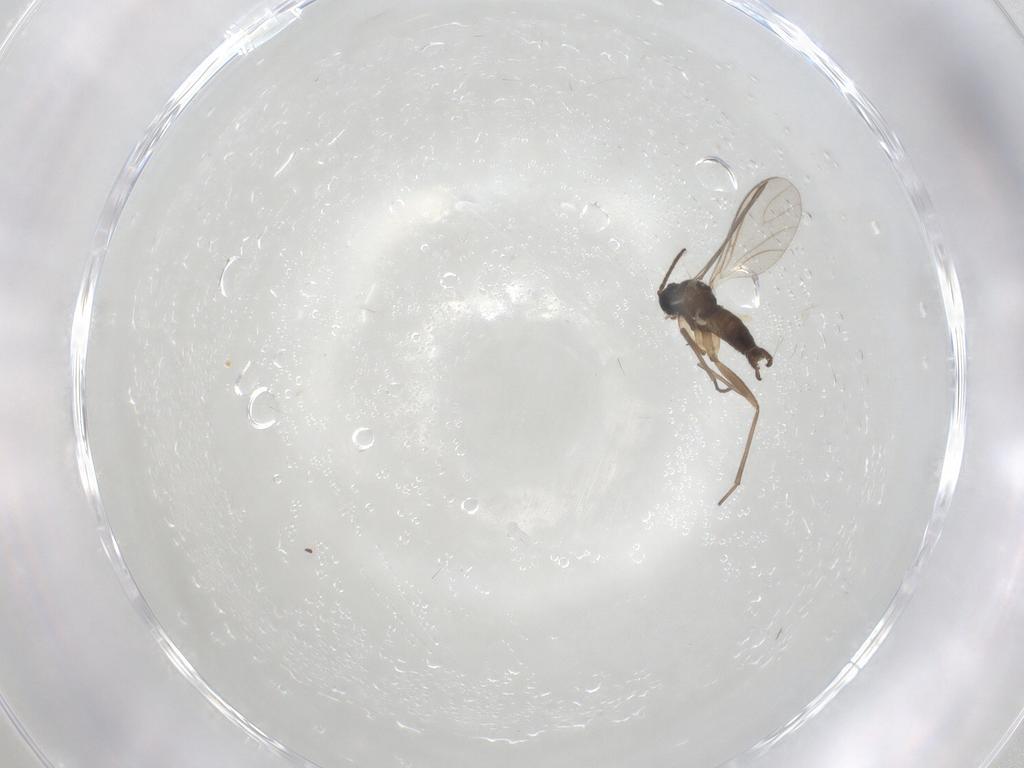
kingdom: Animalia
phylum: Arthropoda
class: Insecta
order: Diptera
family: Sciaridae
